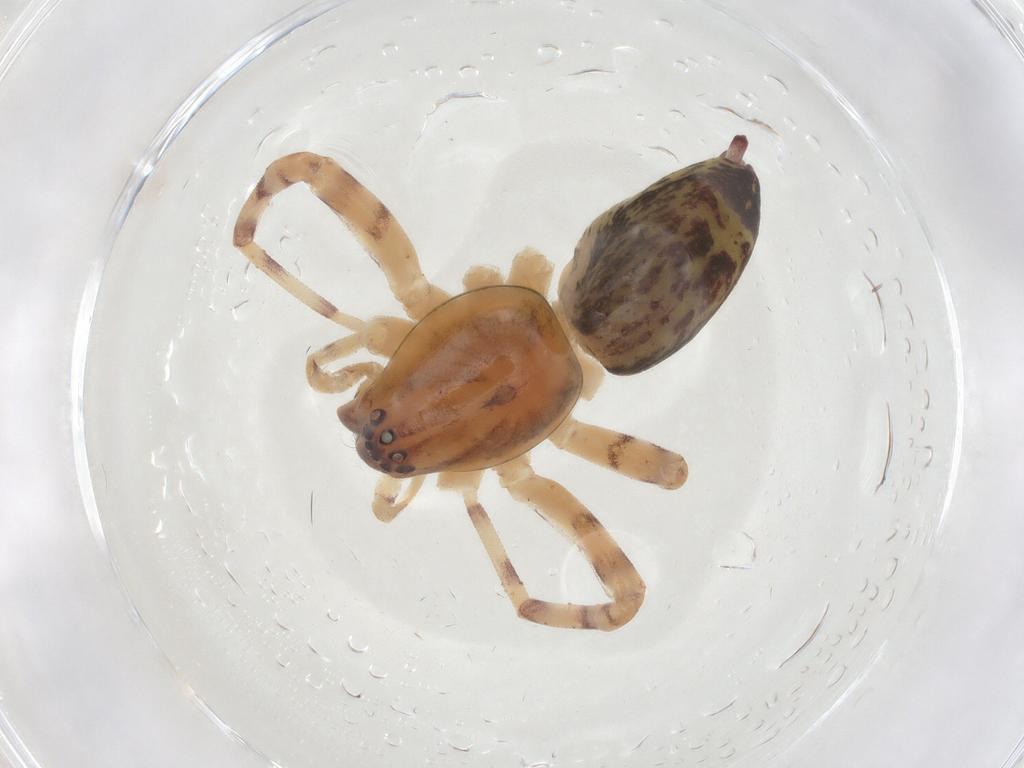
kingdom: Animalia
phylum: Arthropoda
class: Arachnida
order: Araneae
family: Anyphaenidae
